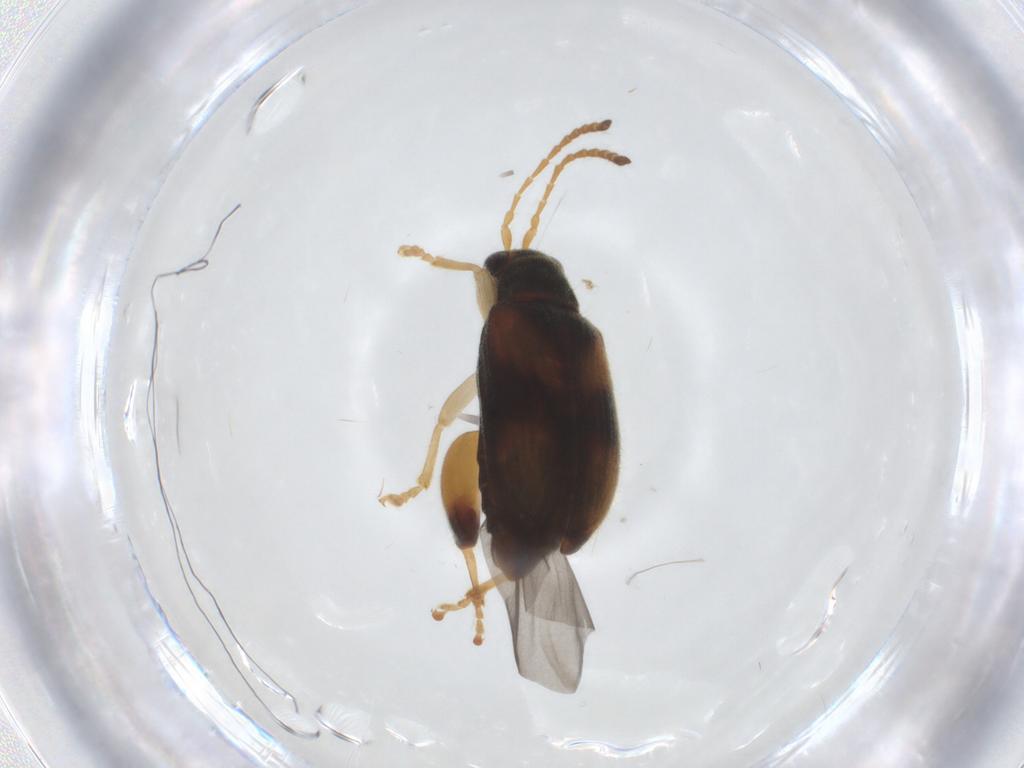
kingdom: Animalia
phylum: Arthropoda
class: Insecta
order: Coleoptera
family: Chrysomelidae
